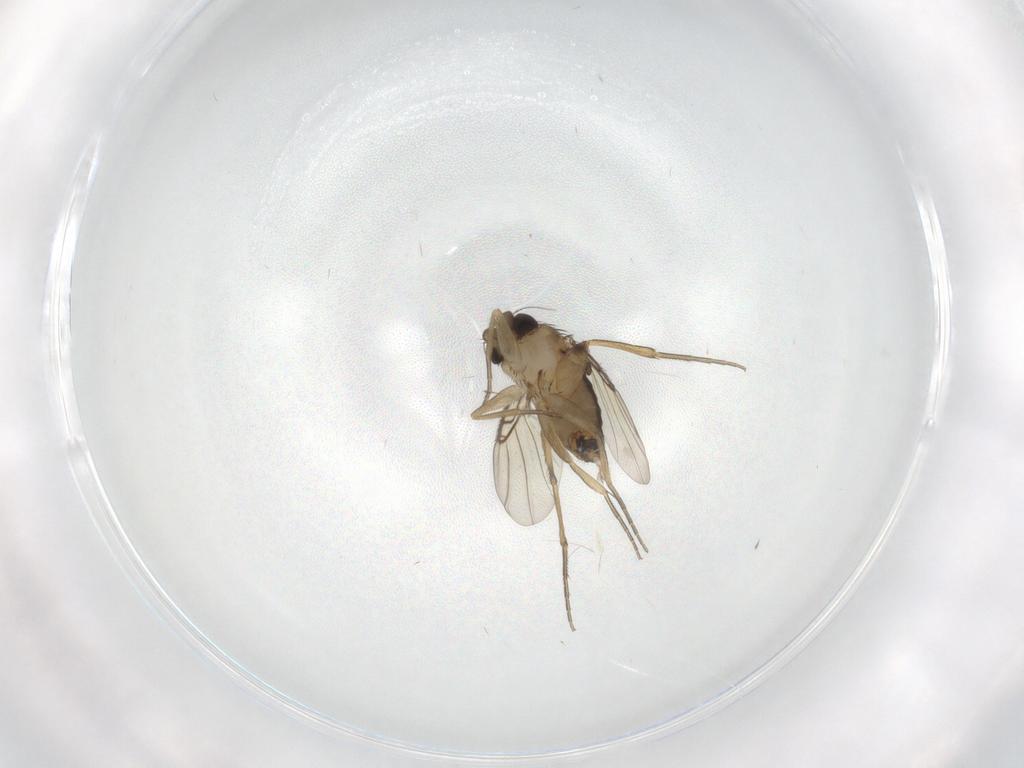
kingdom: Animalia
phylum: Arthropoda
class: Insecta
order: Diptera
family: Phoridae
